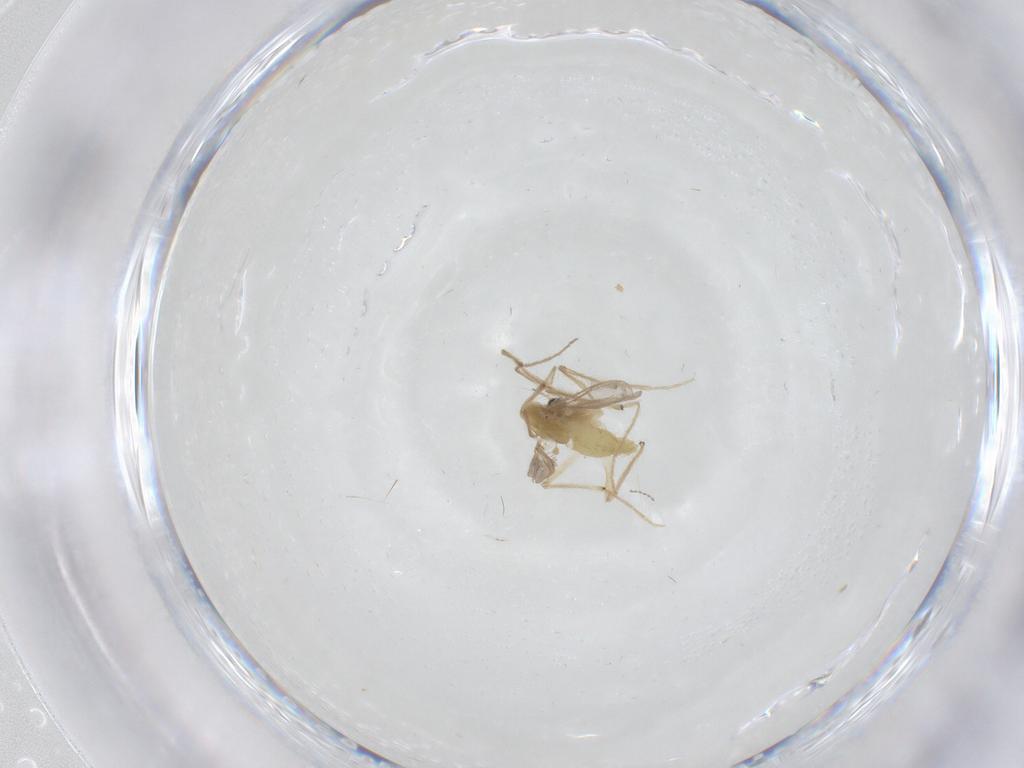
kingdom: Animalia
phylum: Arthropoda
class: Insecta
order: Diptera
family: Chironomidae
